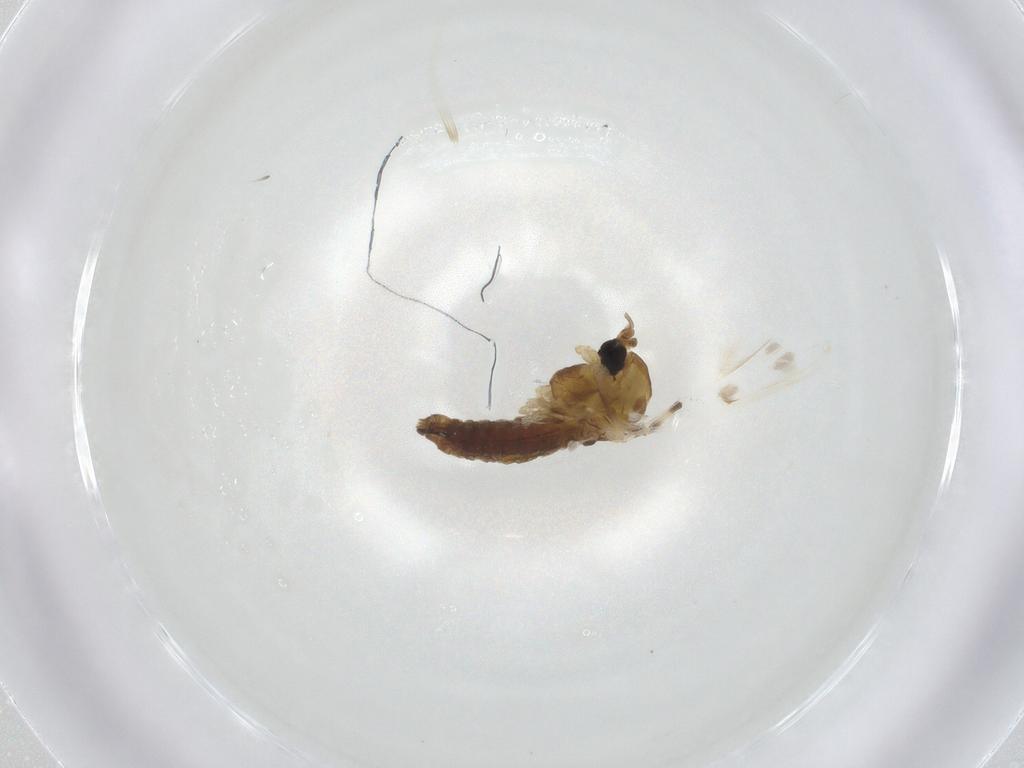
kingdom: Animalia
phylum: Arthropoda
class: Insecta
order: Diptera
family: Chironomidae
